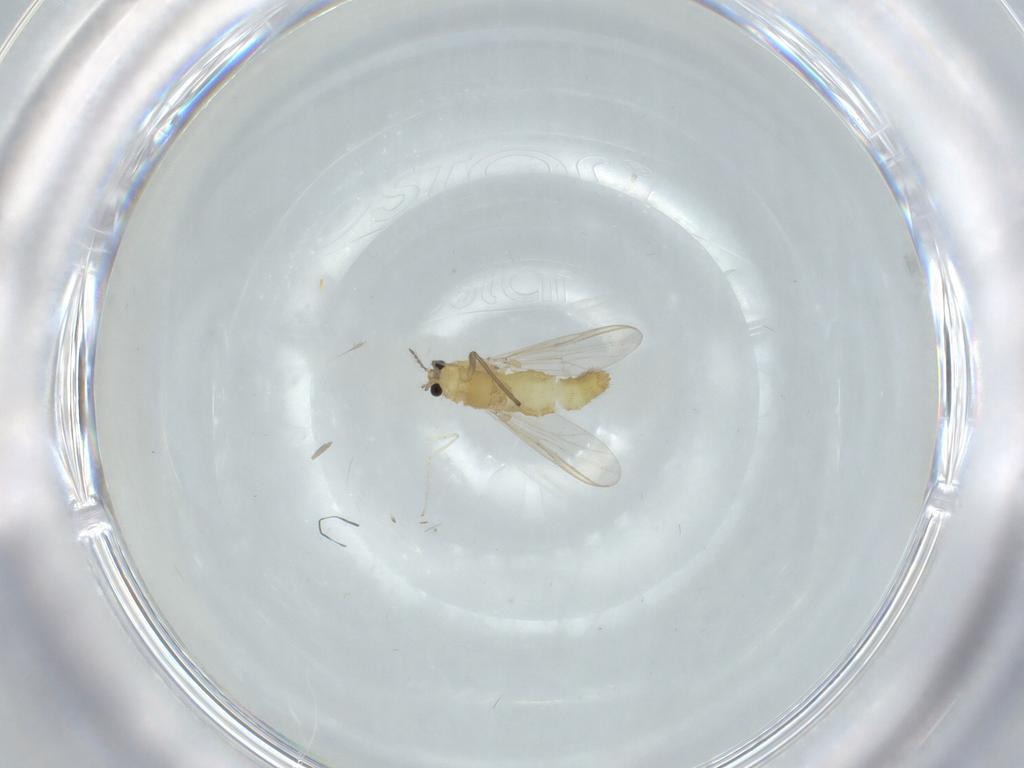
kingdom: Animalia
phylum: Arthropoda
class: Insecta
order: Diptera
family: Chironomidae
